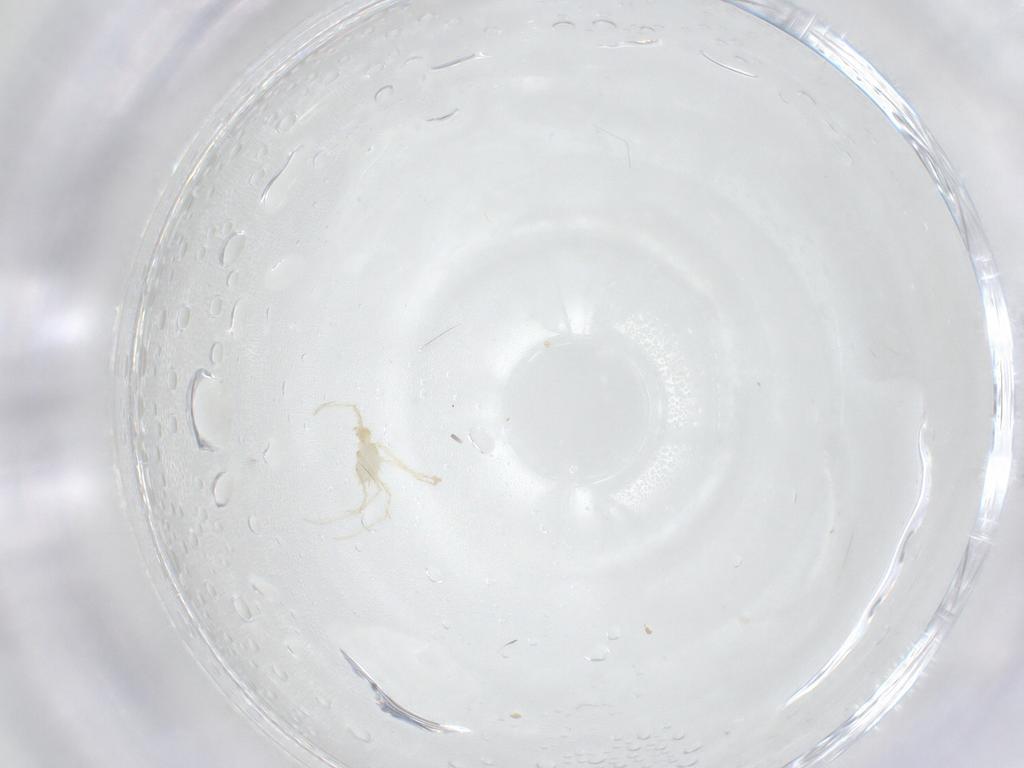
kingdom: Animalia
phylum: Arthropoda
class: Arachnida
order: Trombidiformes
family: Erythraeidae
